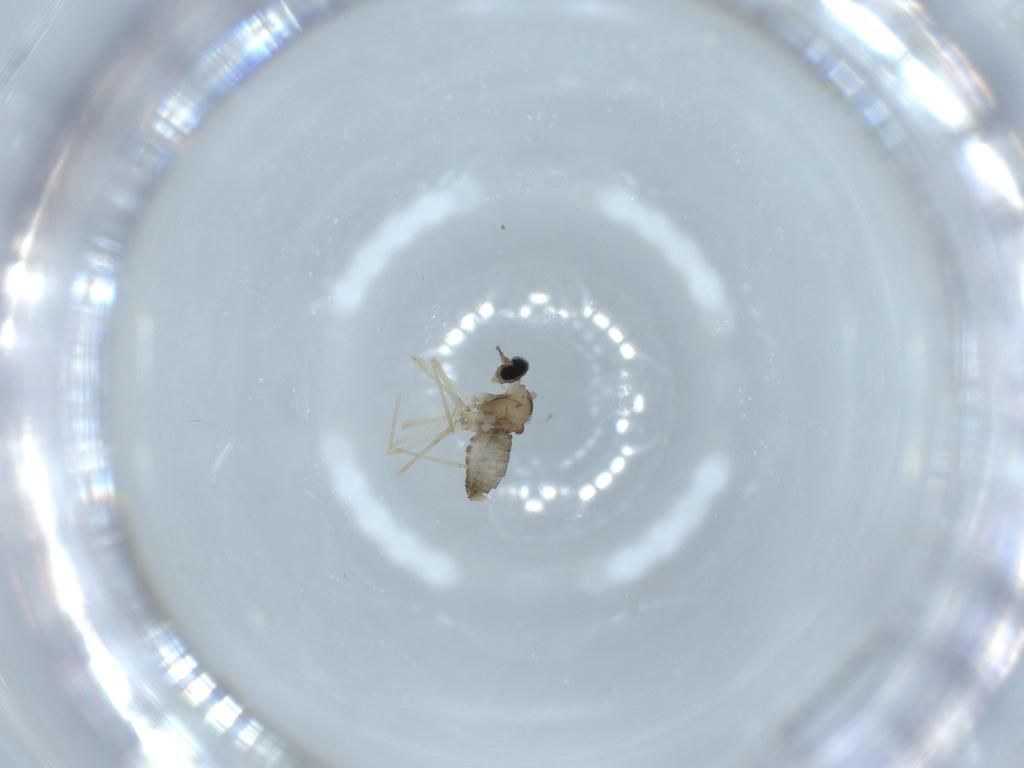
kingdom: Animalia
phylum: Arthropoda
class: Insecta
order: Diptera
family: Cecidomyiidae
